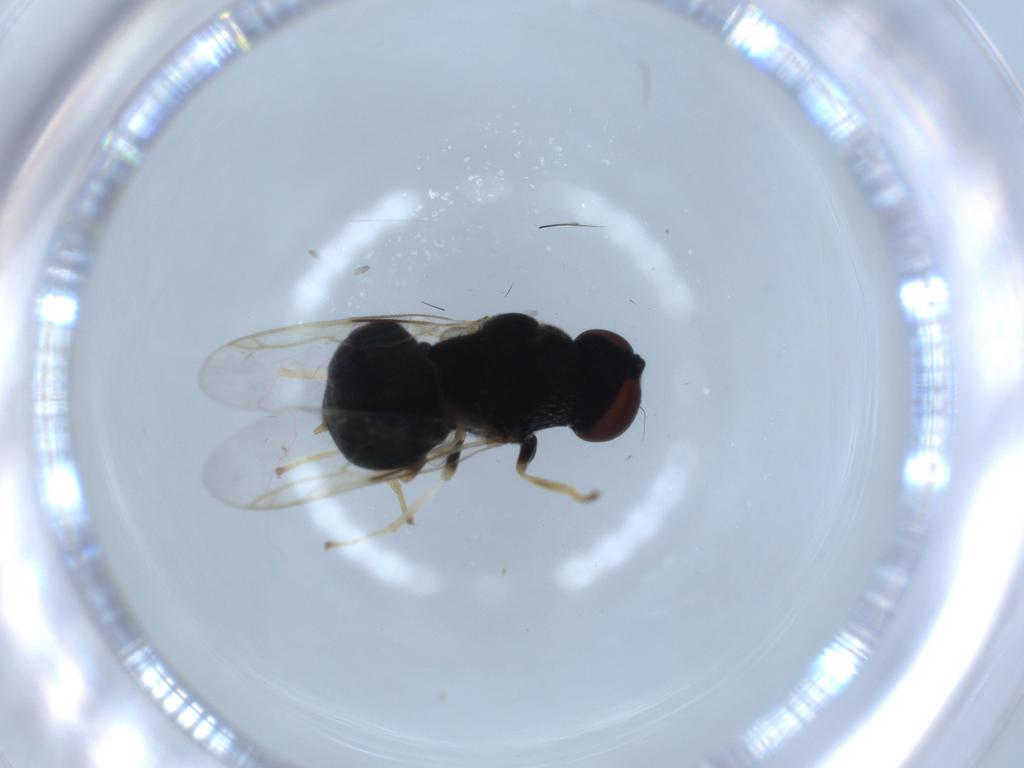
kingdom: Animalia
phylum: Arthropoda
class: Insecta
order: Diptera
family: Stratiomyidae
